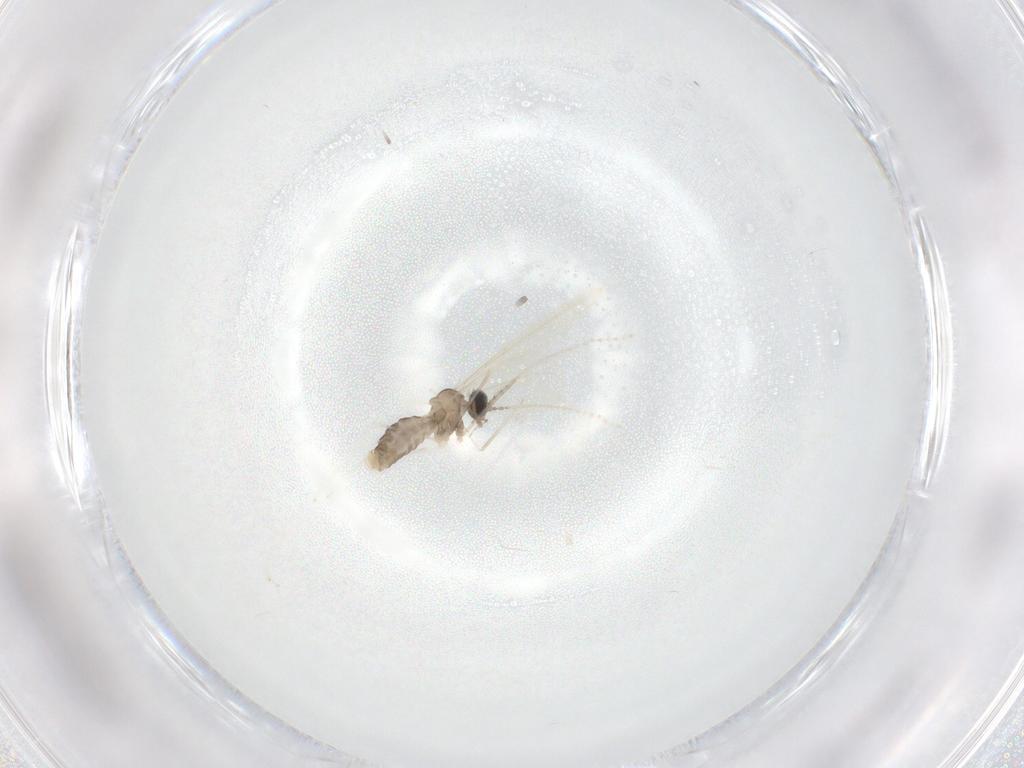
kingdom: Animalia
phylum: Arthropoda
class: Insecta
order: Diptera
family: Cecidomyiidae
